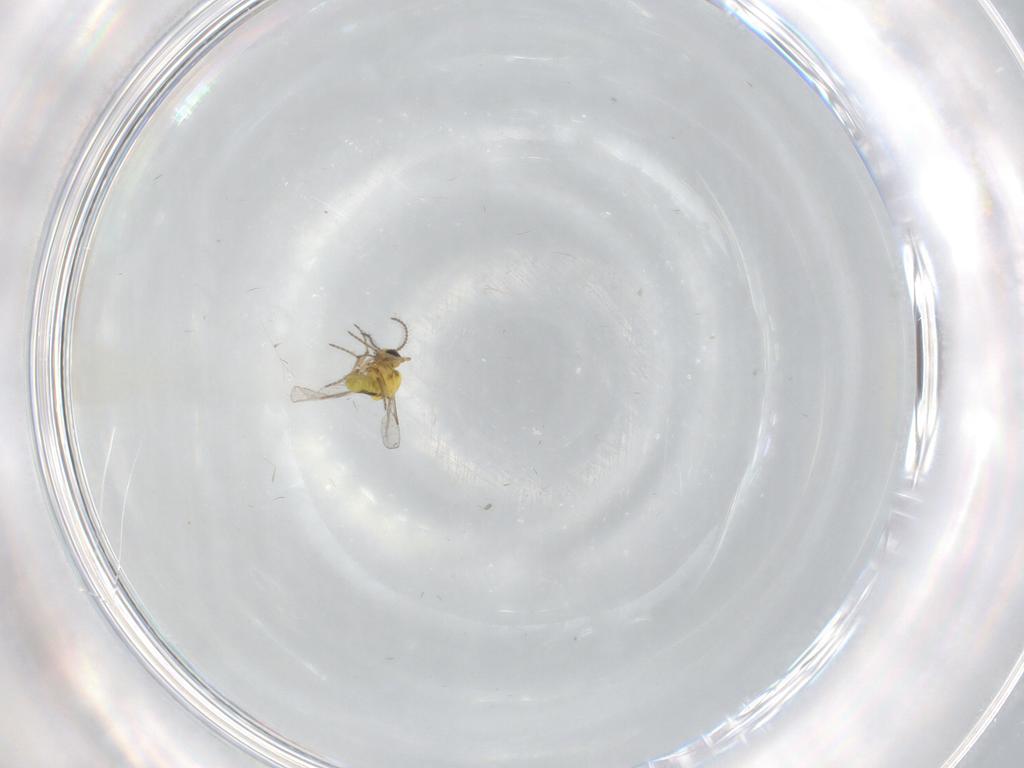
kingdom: Animalia
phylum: Arthropoda
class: Insecta
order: Diptera
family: Ceratopogonidae
